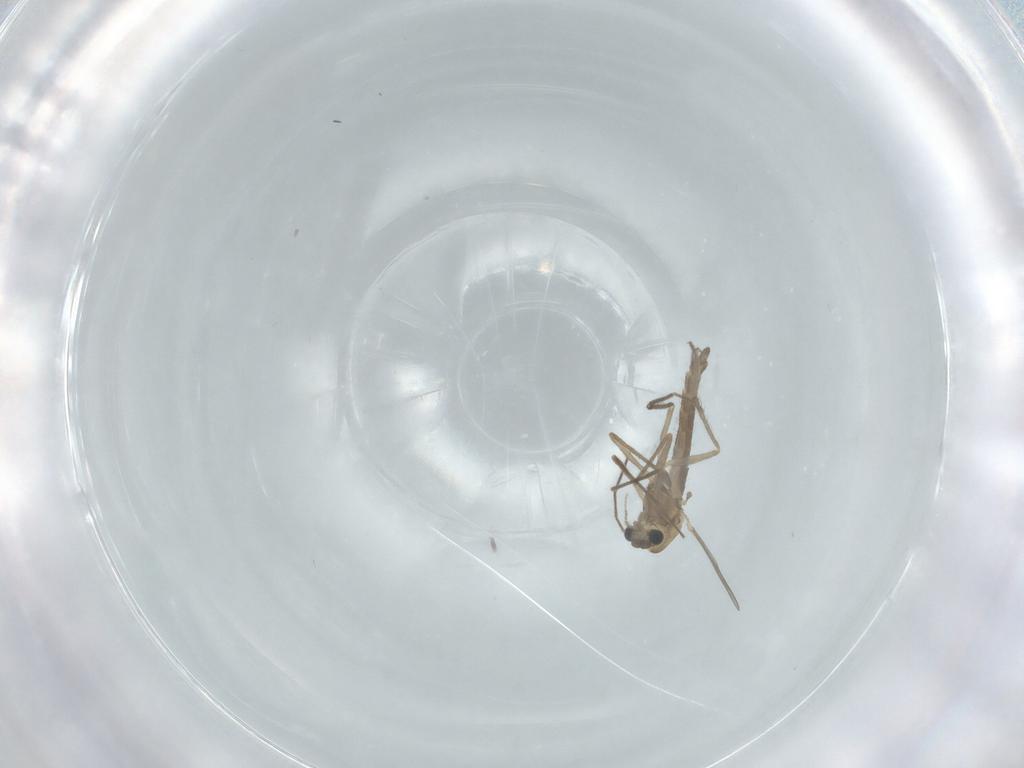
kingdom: Animalia
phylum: Arthropoda
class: Insecta
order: Diptera
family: Chironomidae
